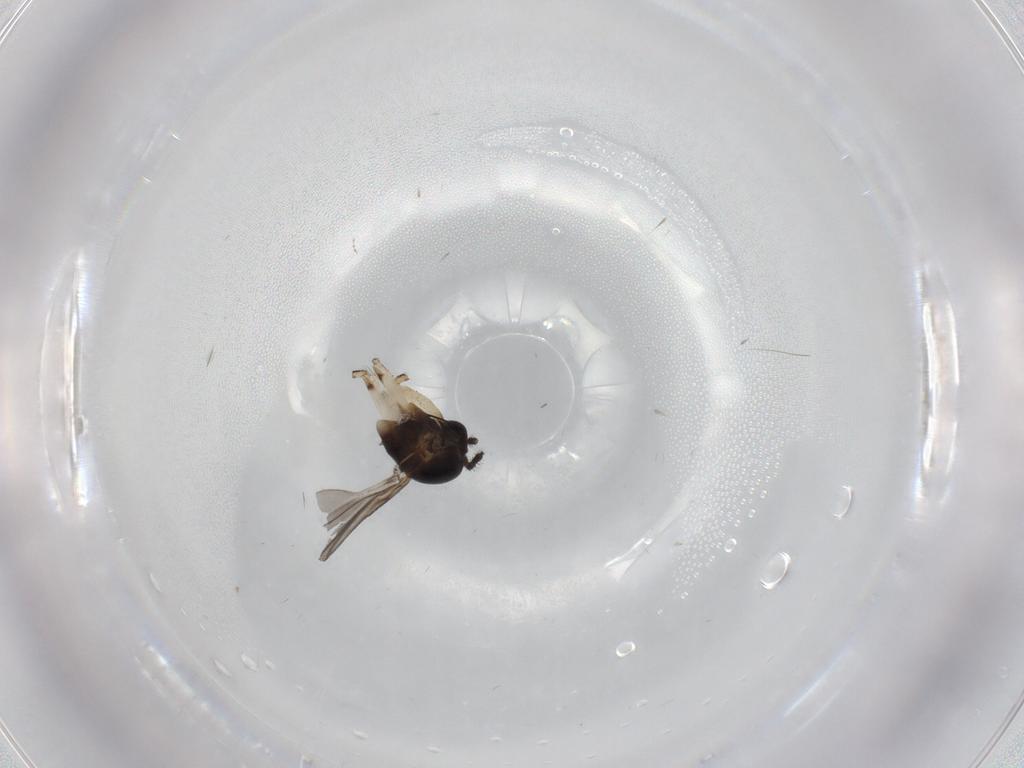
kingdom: Animalia
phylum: Arthropoda
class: Insecta
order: Diptera
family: Sciaridae
